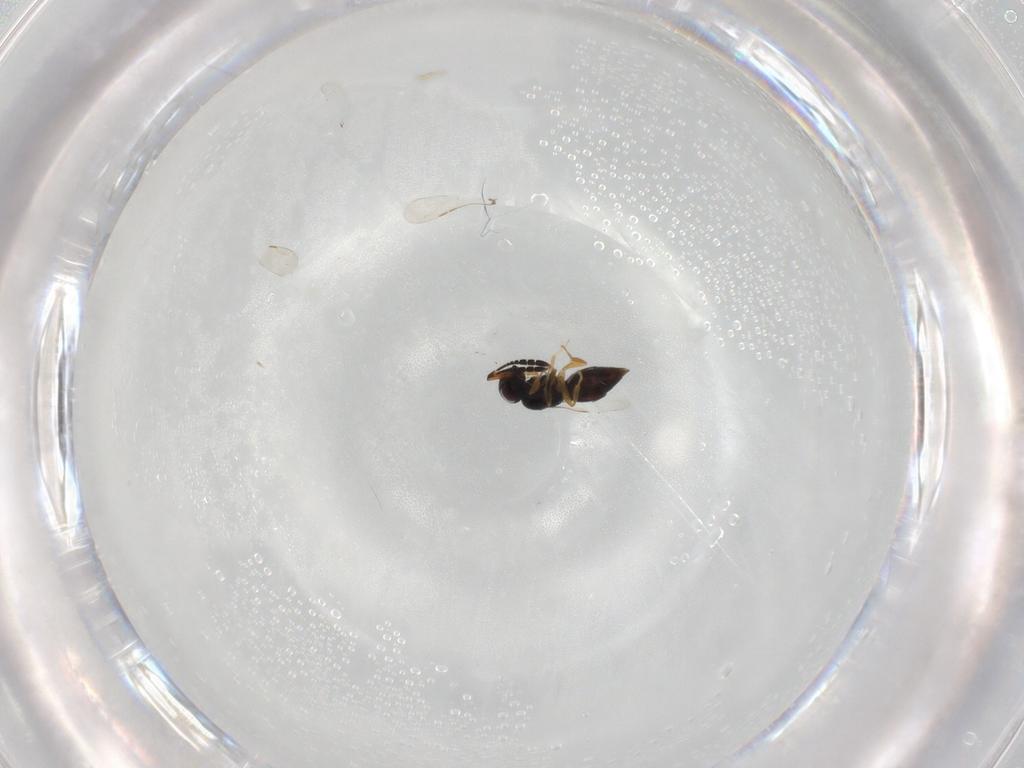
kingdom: Animalia
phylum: Arthropoda
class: Insecta
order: Hymenoptera
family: Ceraphronidae
